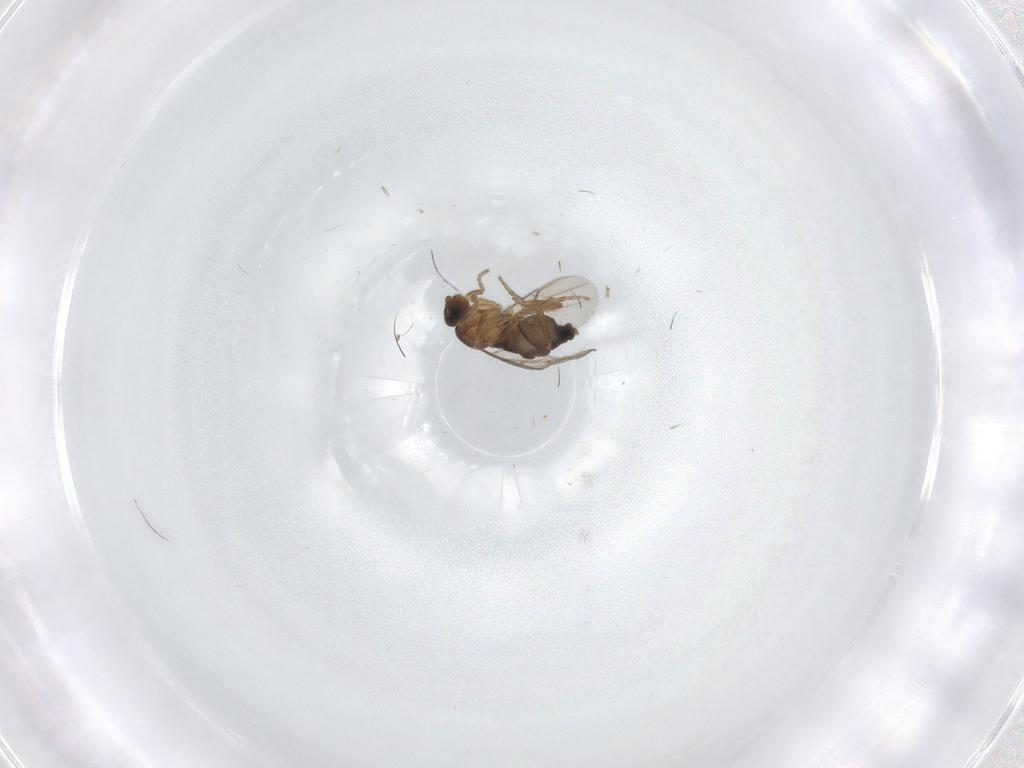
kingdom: Animalia
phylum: Arthropoda
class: Insecta
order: Diptera
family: Phoridae
